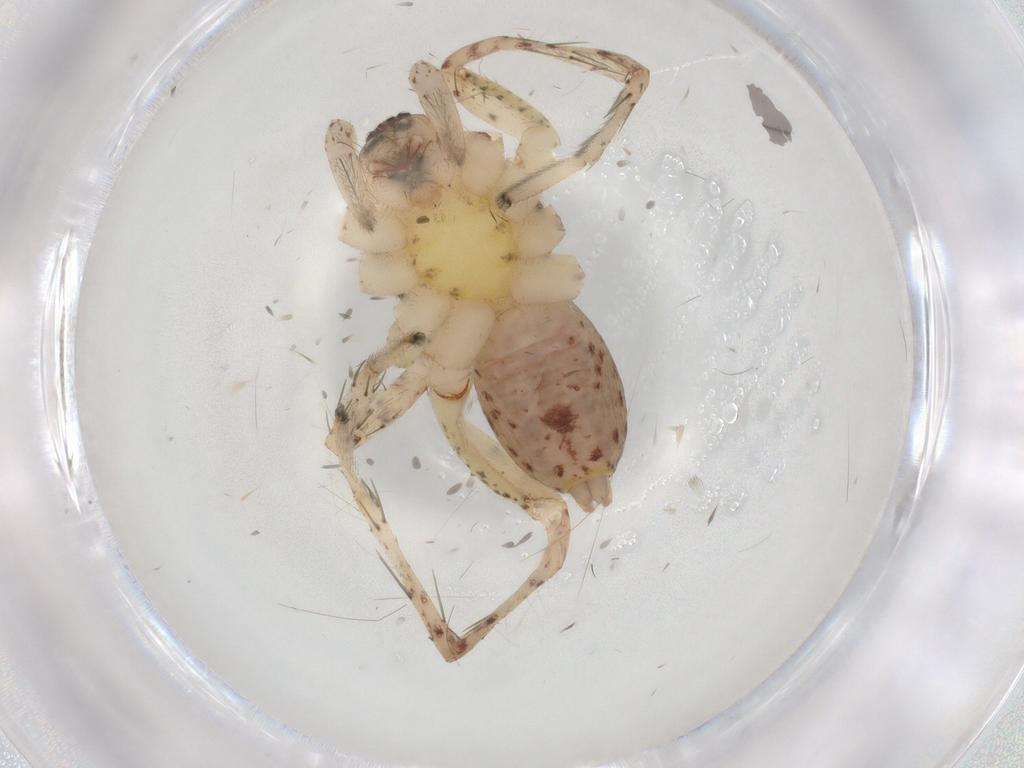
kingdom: Animalia
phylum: Arthropoda
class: Arachnida
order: Araneae
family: Anyphaenidae
